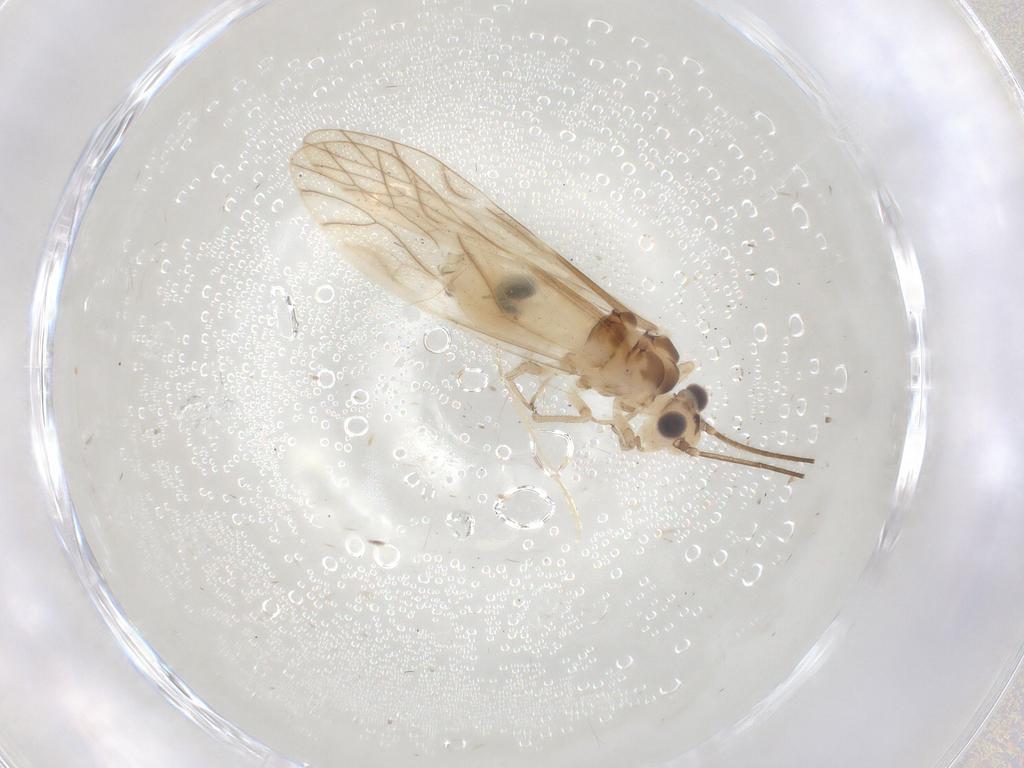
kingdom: Animalia
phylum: Arthropoda
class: Insecta
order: Psocodea
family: Caeciliusidae
